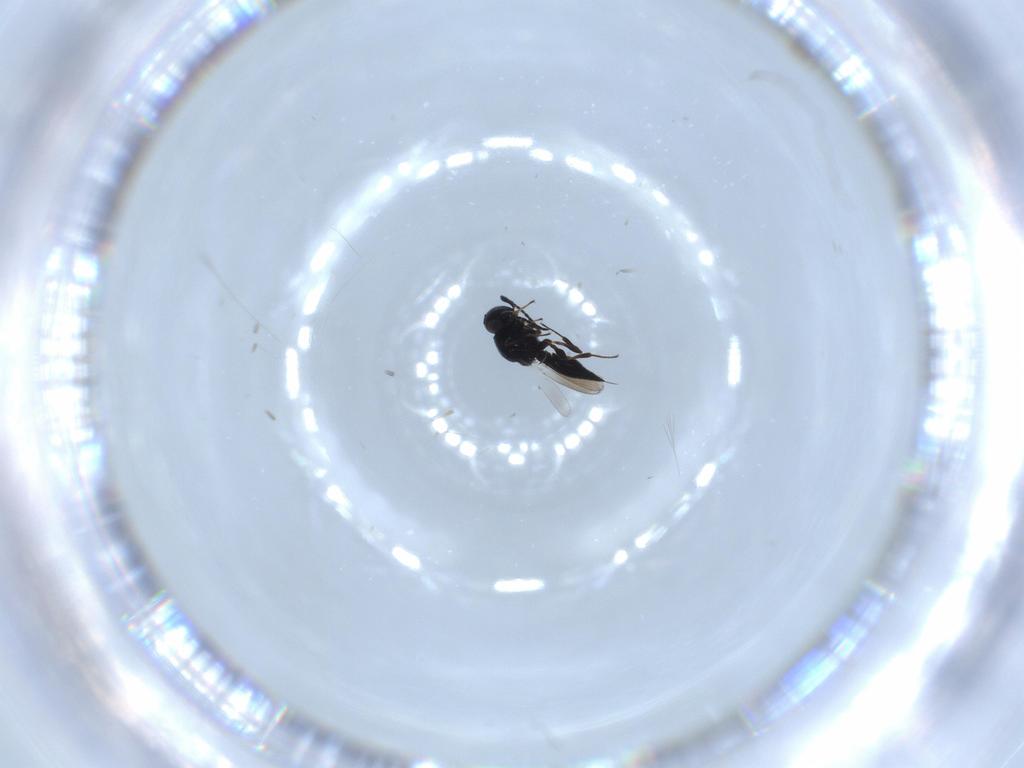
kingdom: Animalia
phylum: Arthropoda
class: Insecta
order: Hymenoptera
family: Platygastridae
